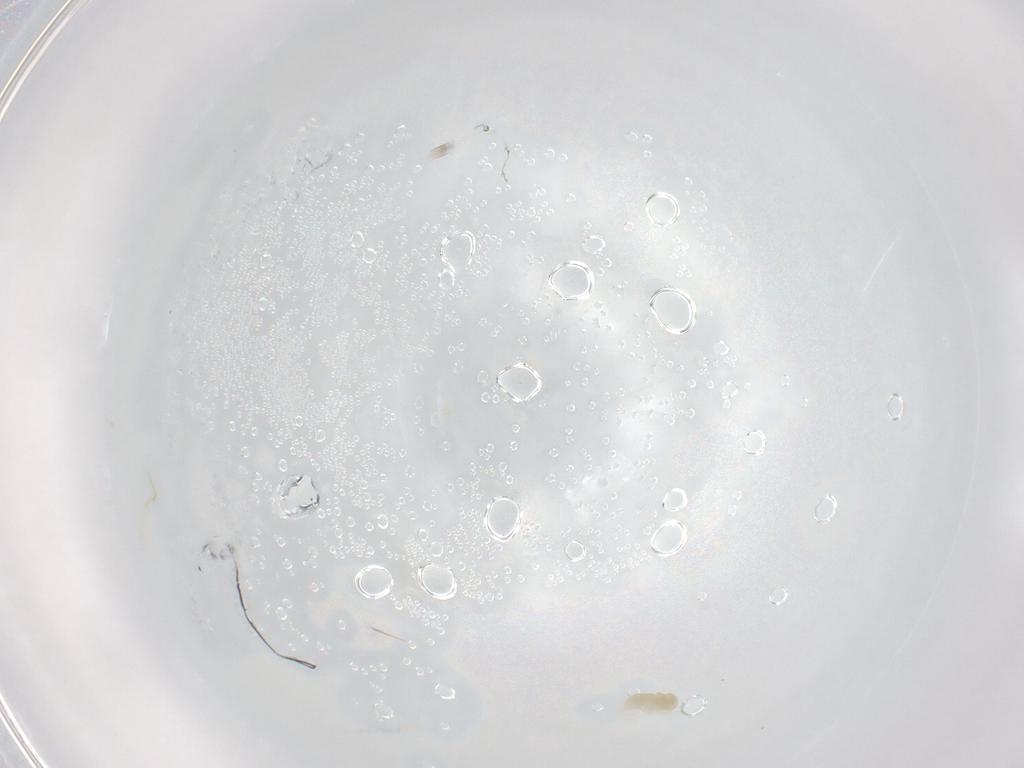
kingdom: Animalia
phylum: Arthropoda
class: Arachnida
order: Trombidiformes
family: Eupodidae
